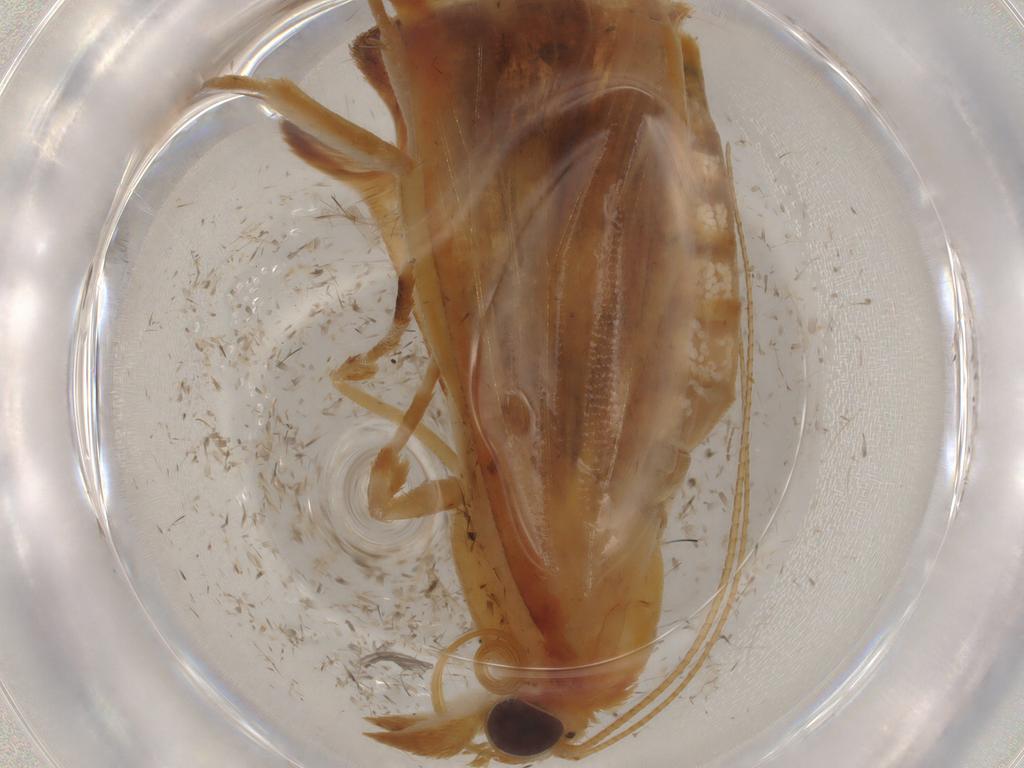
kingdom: Animalia
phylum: Arthropoda
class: Insecta
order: Lepidoptera
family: Crambidae
